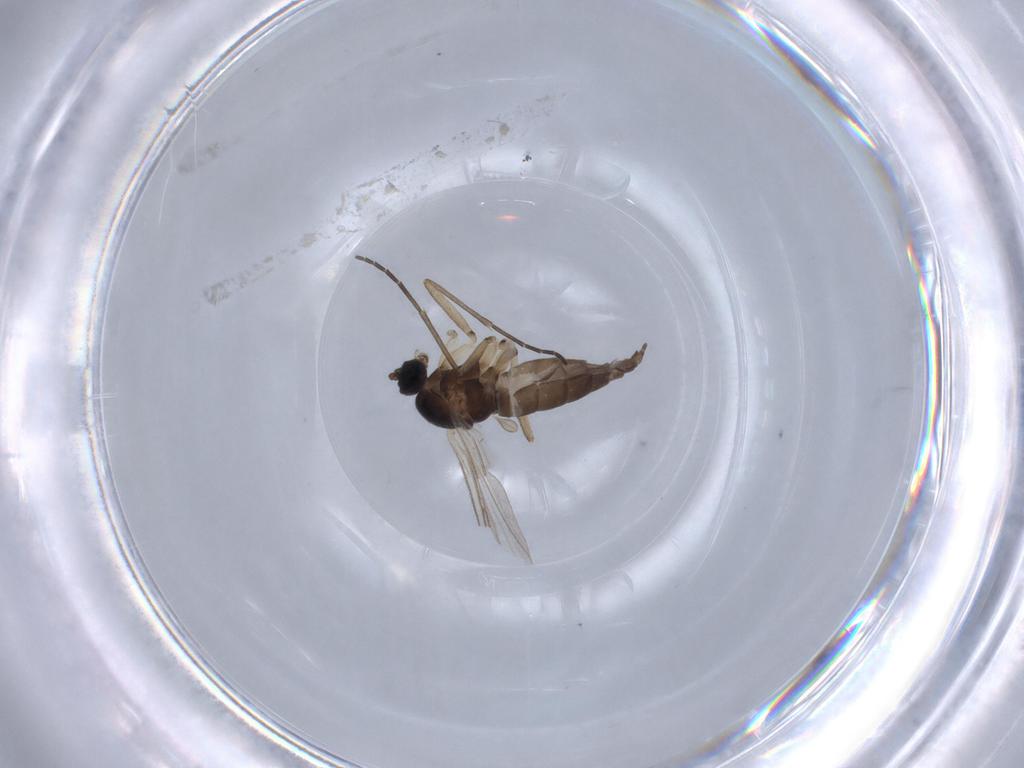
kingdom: Animalia
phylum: Arthropoda
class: Insecta
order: Diptera
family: Sciaridae
